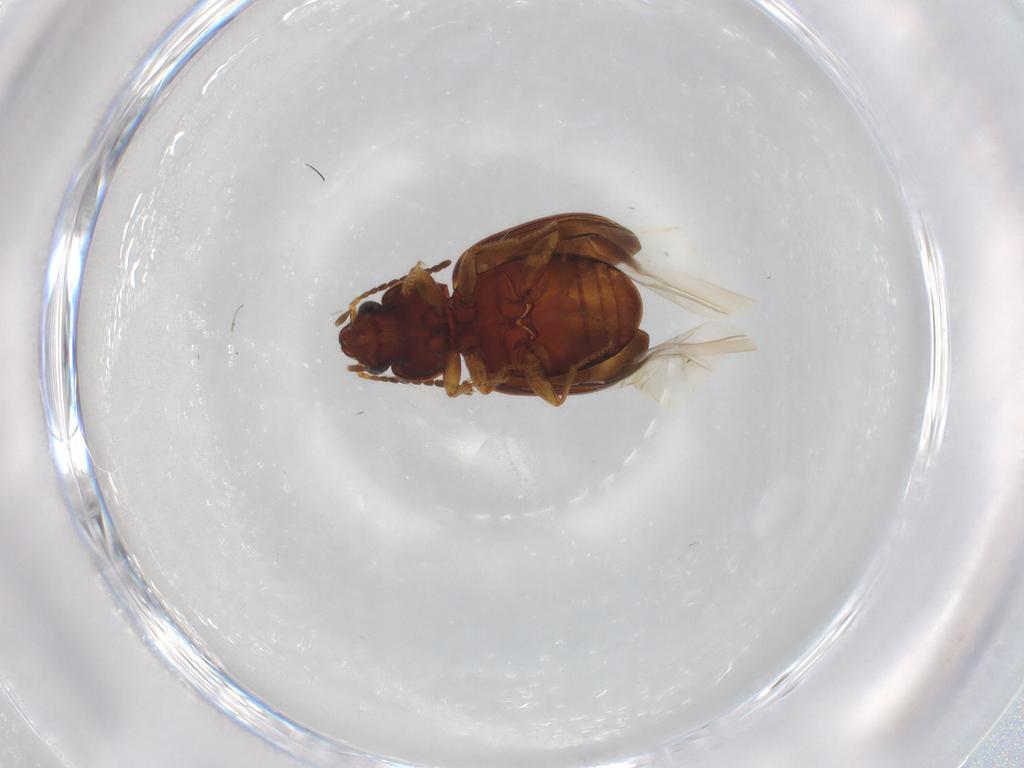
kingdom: Animalia
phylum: Arthropoda
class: Insecta
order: Coleoptera
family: Carabidae
